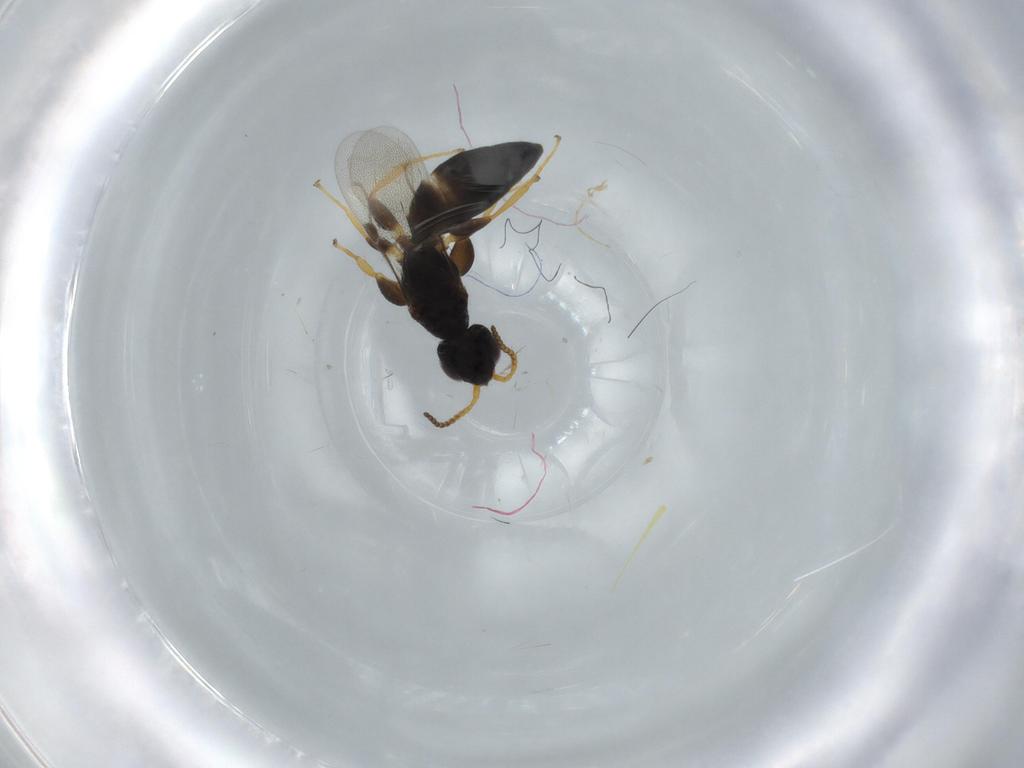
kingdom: Animalia
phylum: Arthropoda
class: Insecta
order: Hymenoptera
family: Bethylidae
